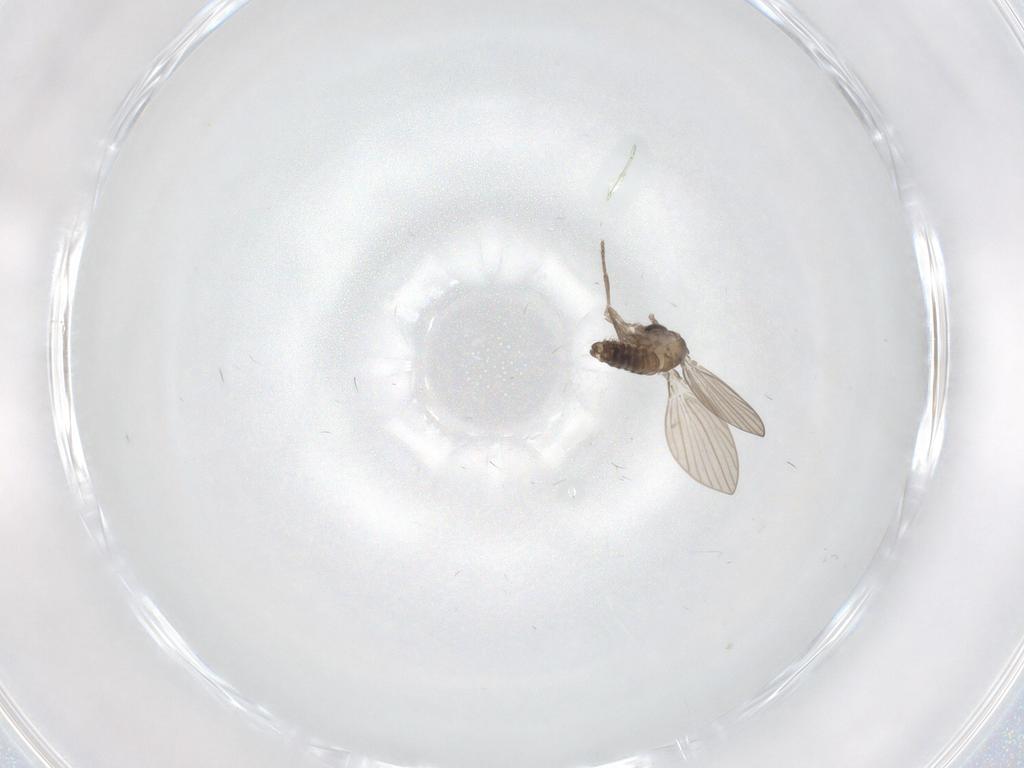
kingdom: Animalia
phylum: Arthropoda
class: Insecta
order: Diptera
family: Psychodidae
